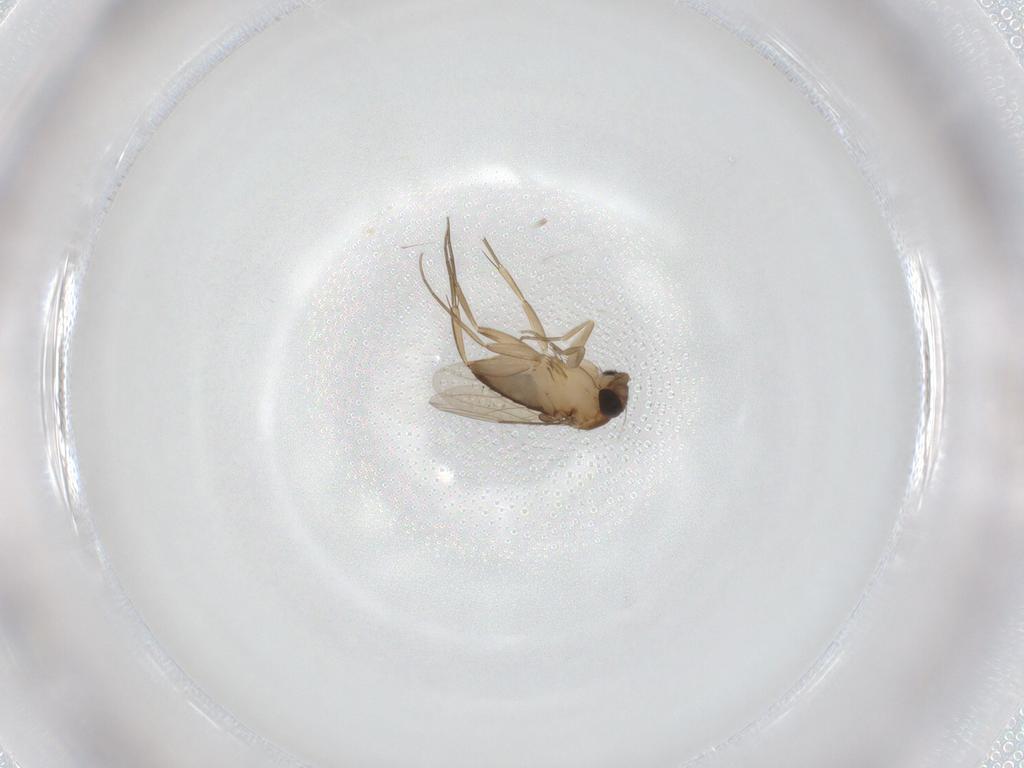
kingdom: Animalia
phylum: Arthropoda
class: Insecta
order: Diptera
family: Phoridae
